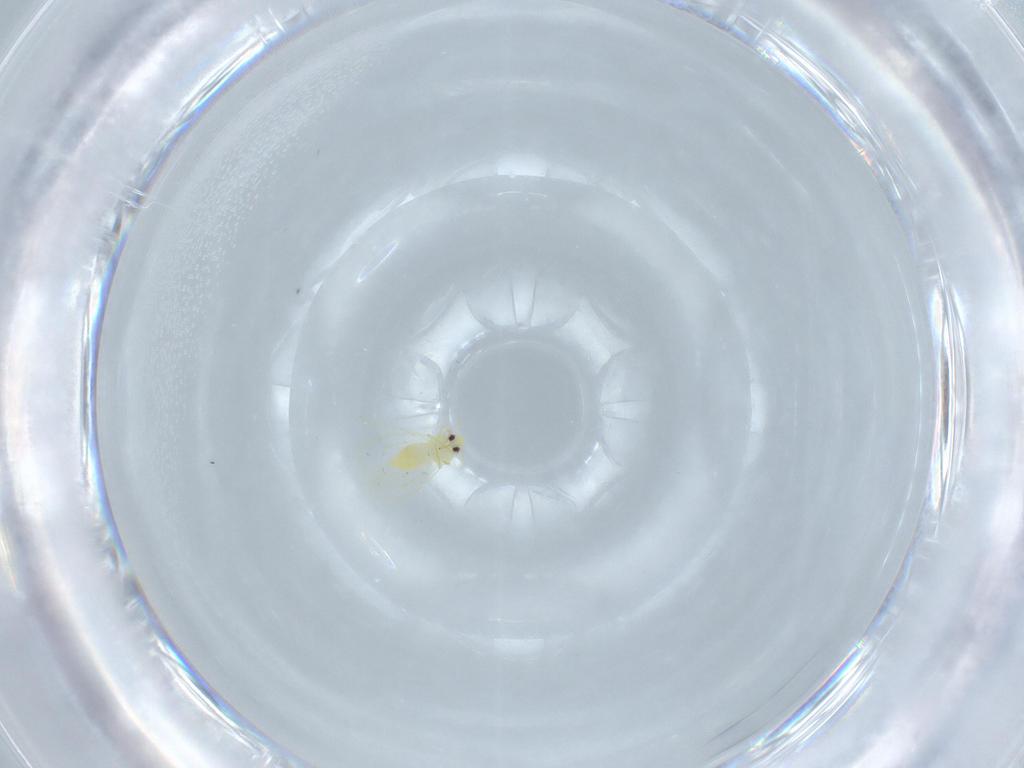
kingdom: Animalia
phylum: Arthropoda
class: Insecta
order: Hemiptera
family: Aleyrodidae
